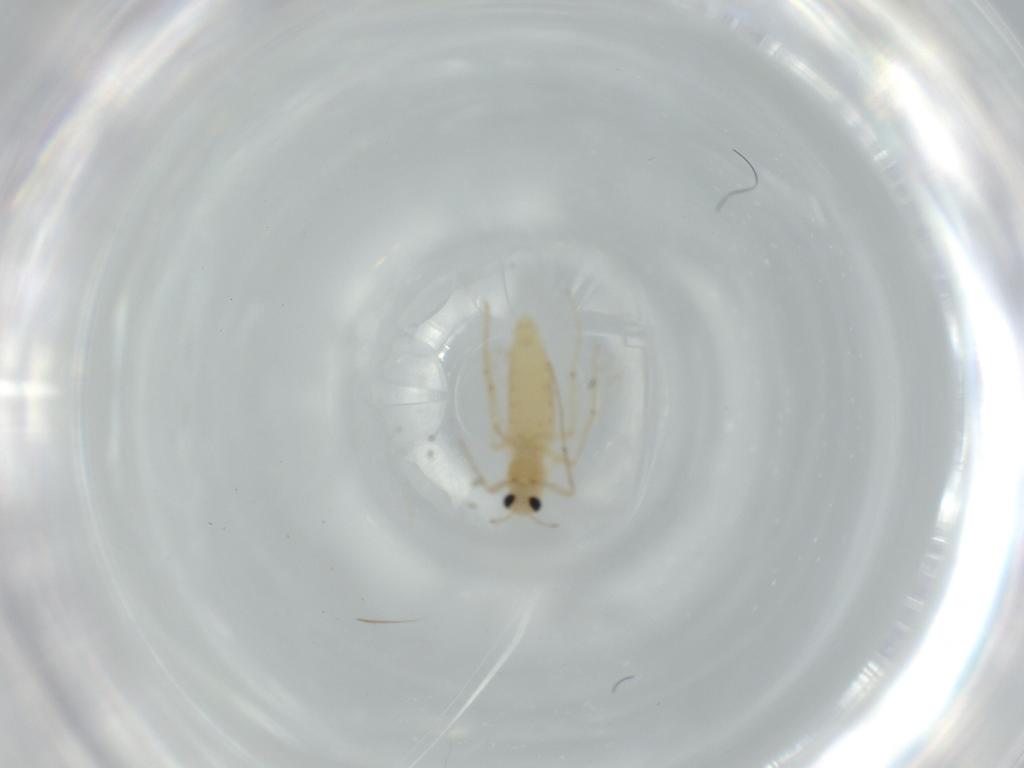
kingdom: Animalia
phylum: Arthropoda
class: Insecta
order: Diptera
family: Chironomidae
